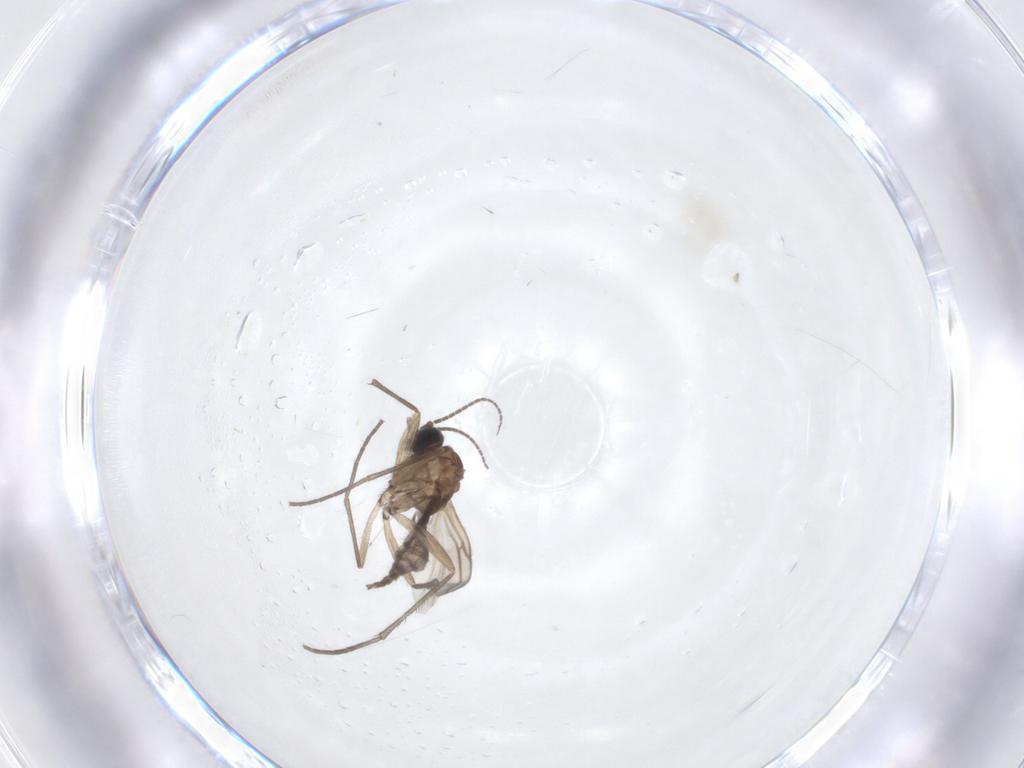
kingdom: Animalia
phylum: Arthropoda
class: Insecta
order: Diptera
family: Sciaridae
